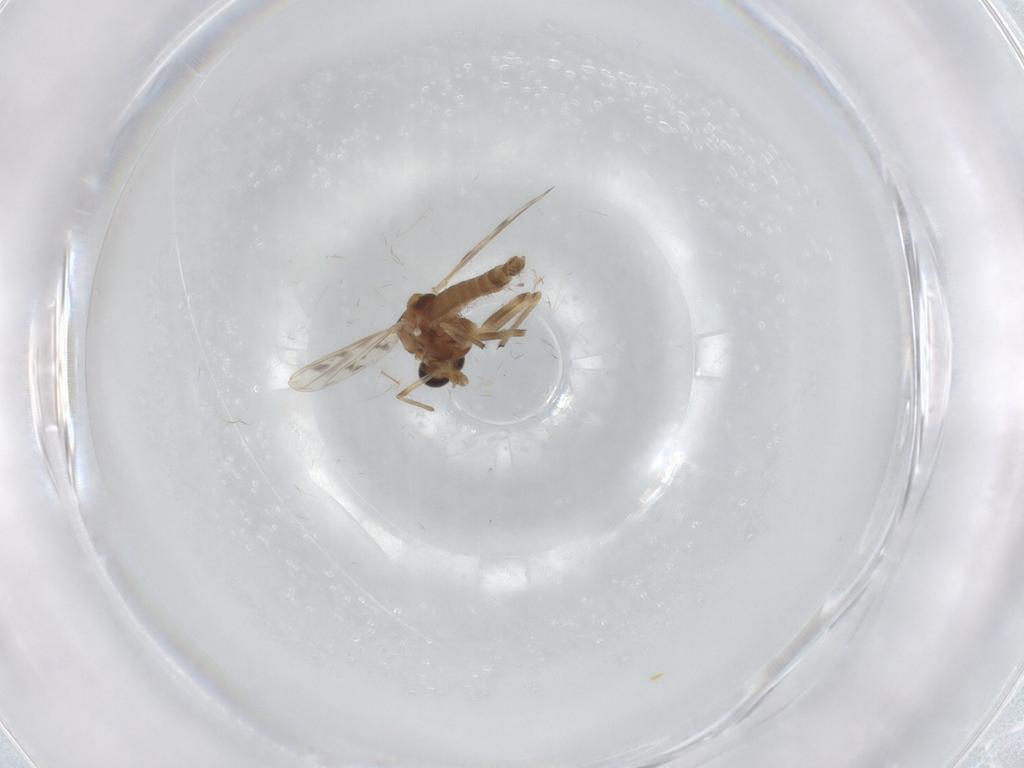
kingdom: Animalia
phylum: Arthropoda
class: Insecta
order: Diptera
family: Chironomidae
